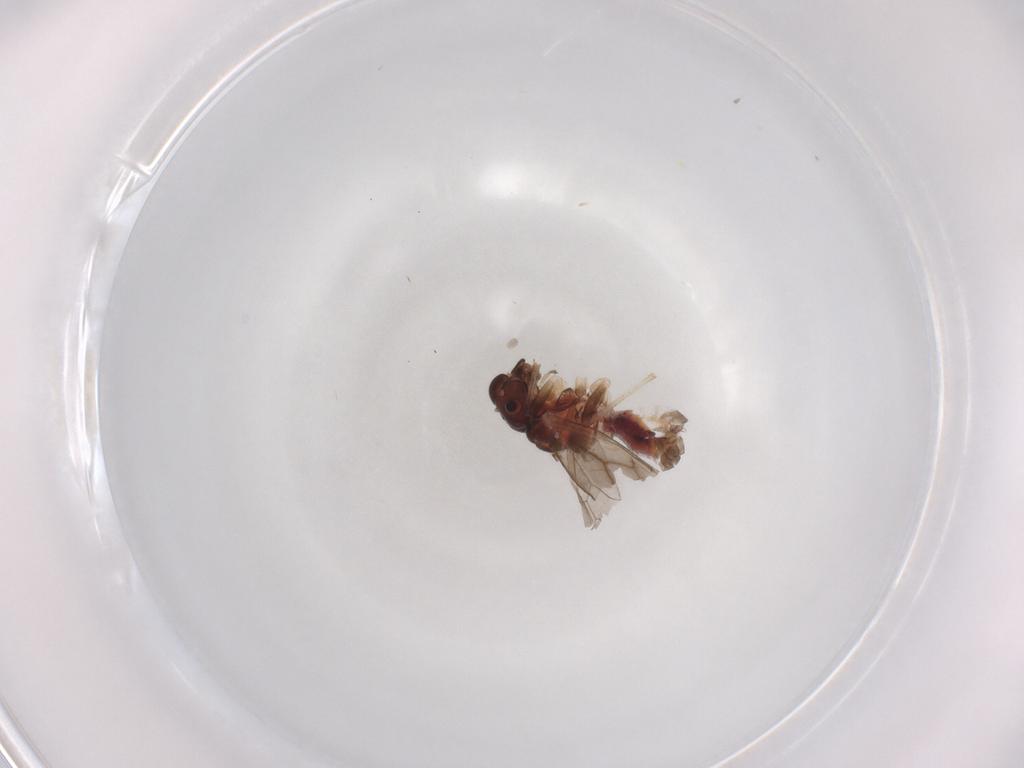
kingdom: Animalia
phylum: Arthropoda
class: Insecta
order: Psocodea
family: Caeciliusidae
